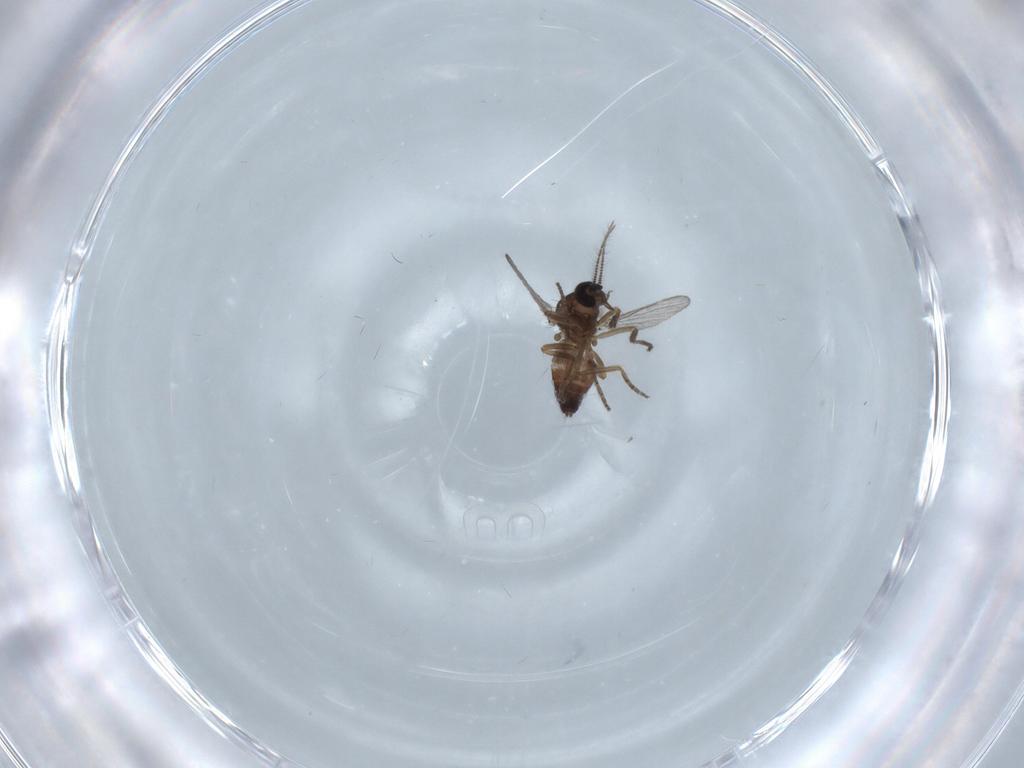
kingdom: Animalia
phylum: Arthropoda
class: Insecta
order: Diptera
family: Chironomidae
